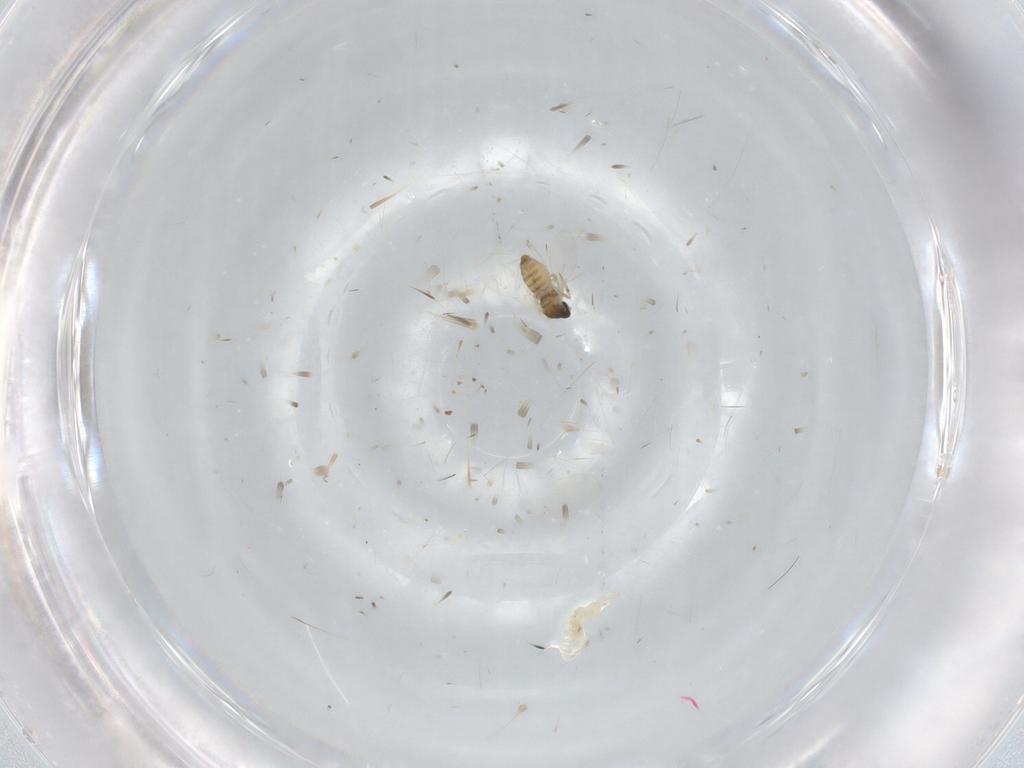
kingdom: Animalia
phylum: Arthropoda
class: Insecta
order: Diptera
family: Cecidomyiidae
